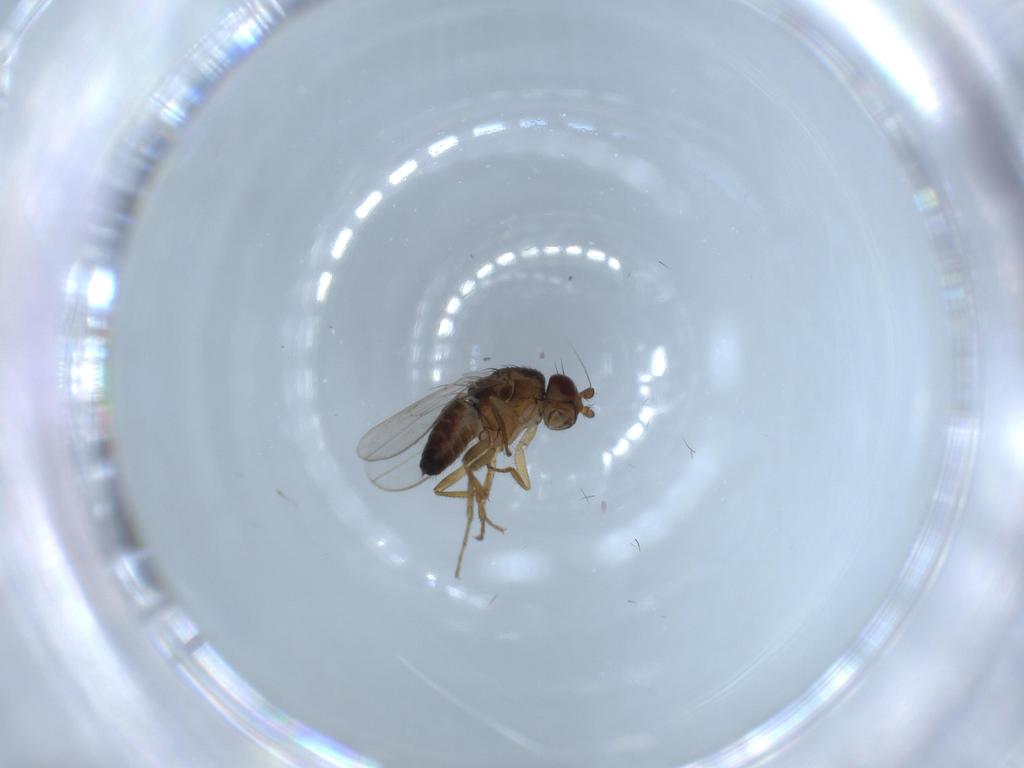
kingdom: Animalia
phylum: Arthropoda
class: Insecta
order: Diptera
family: Sphaeroceridae
